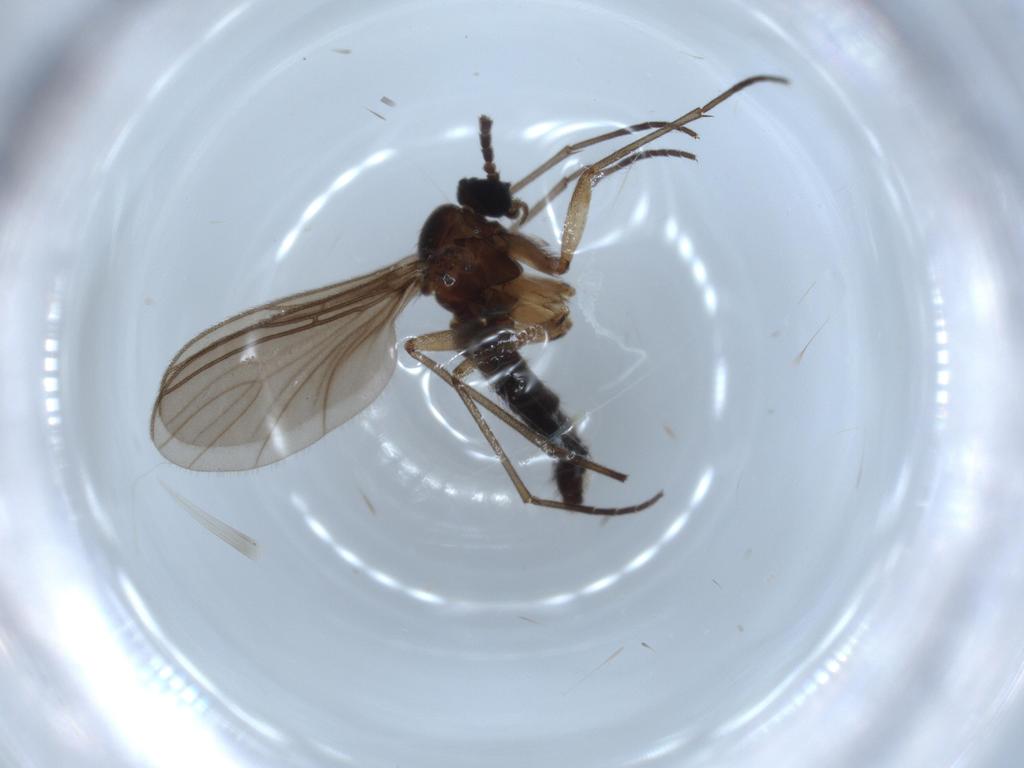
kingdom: Animalia
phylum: Arthropoda
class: Insecta
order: Diptera
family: Sciaridae
